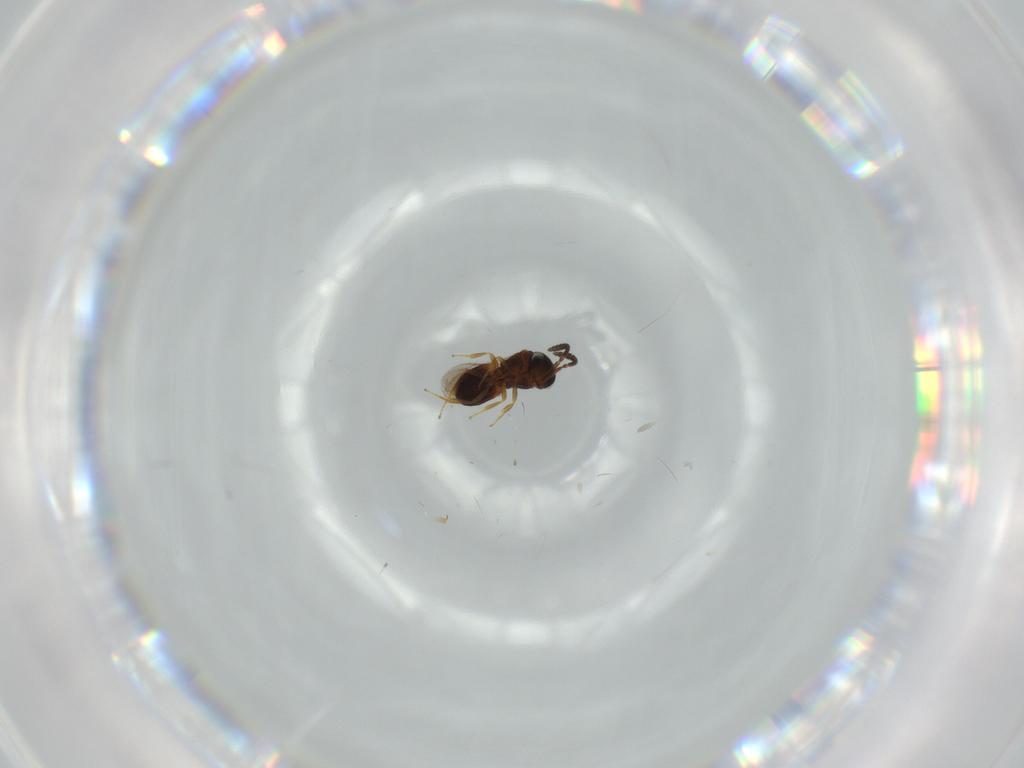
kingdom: Animalia
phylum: Arthropoda
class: Insecta
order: Hymenoptera
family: Scelionidae
